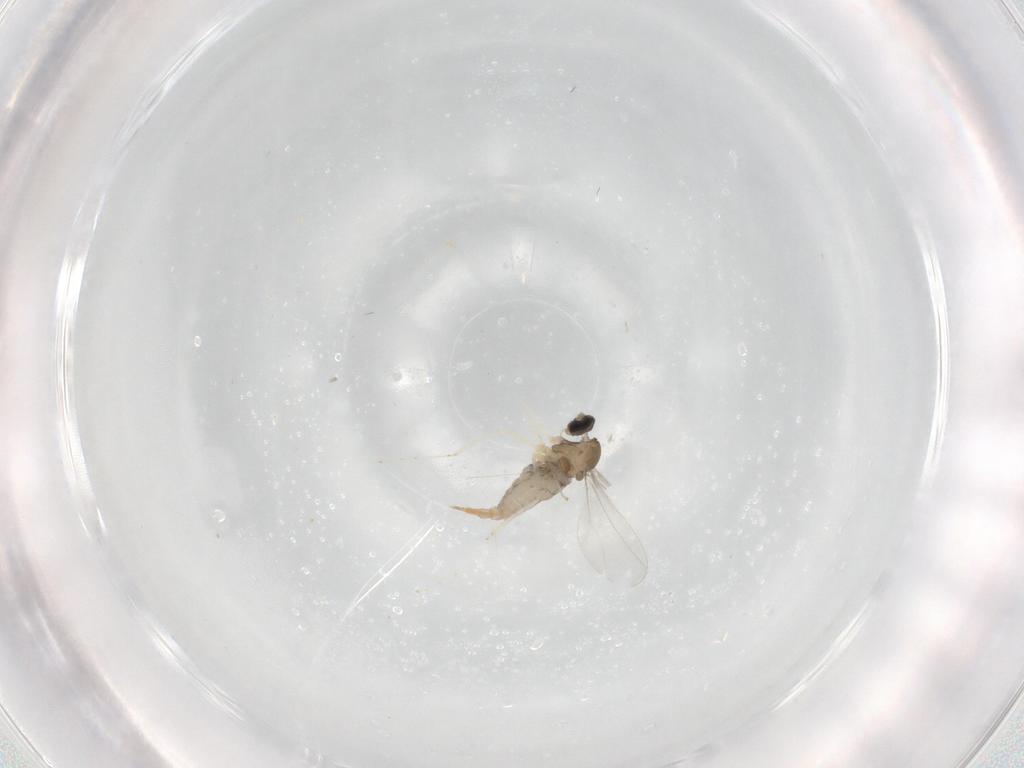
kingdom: Animalia
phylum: Arthropoda
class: Insecta
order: Diptera
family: Cecidomyiidae
